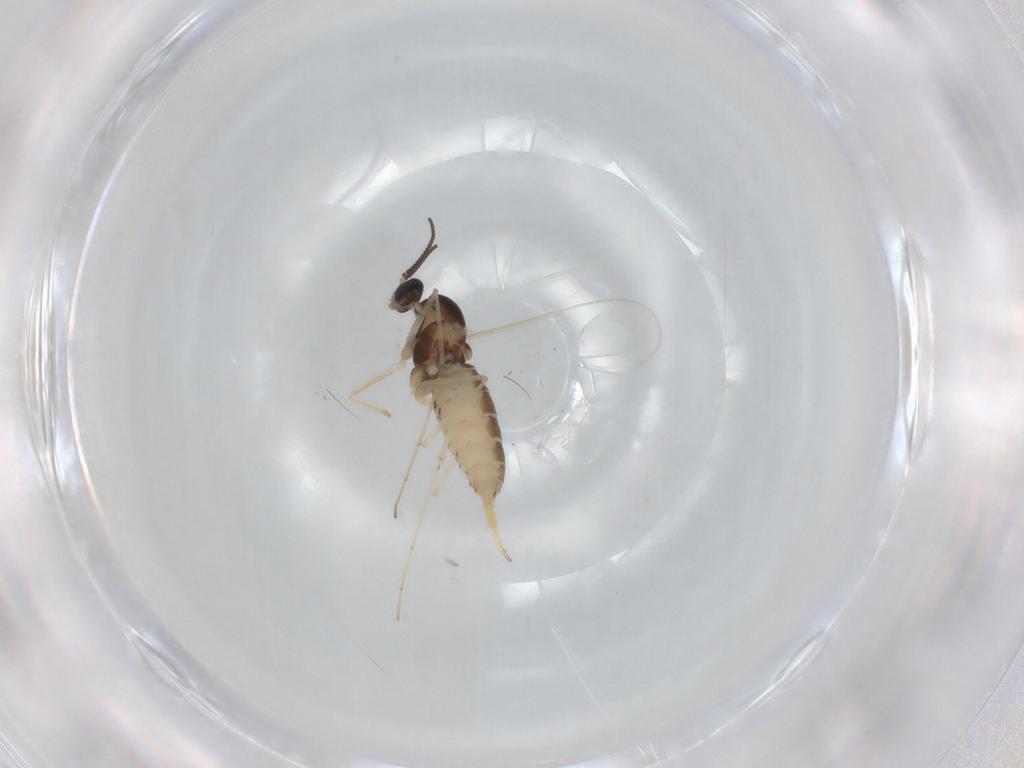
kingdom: Animalia
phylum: Arthropoda
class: Insecta
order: Diptera
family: Cecidomyiidae
